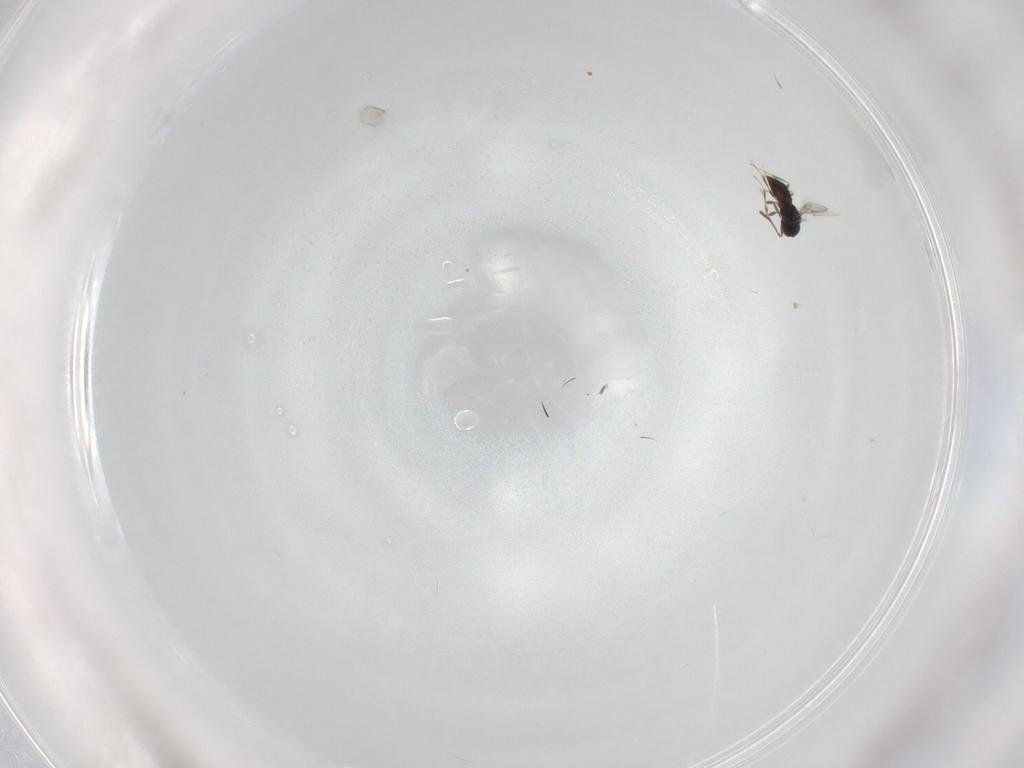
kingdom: Animalia
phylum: Arthropoda
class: Insecta
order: Hymenoptera
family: Scelionidae
